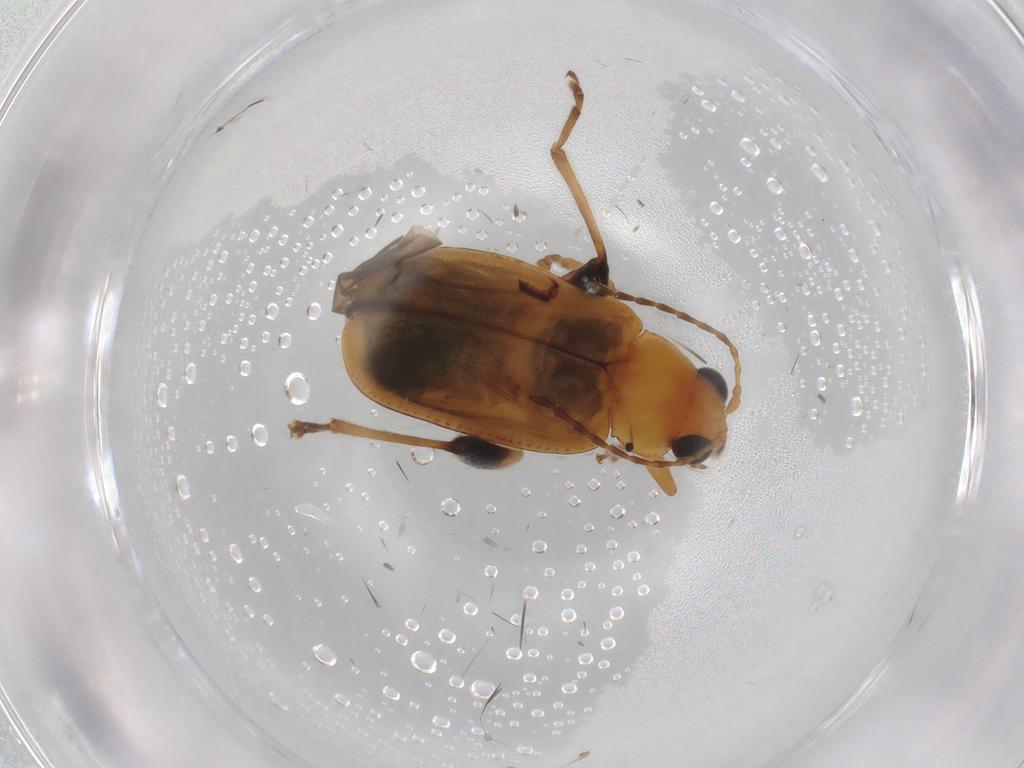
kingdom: Animalia
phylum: Arthropoda
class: Insecta
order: Coleoptera
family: Chrysomelidae
